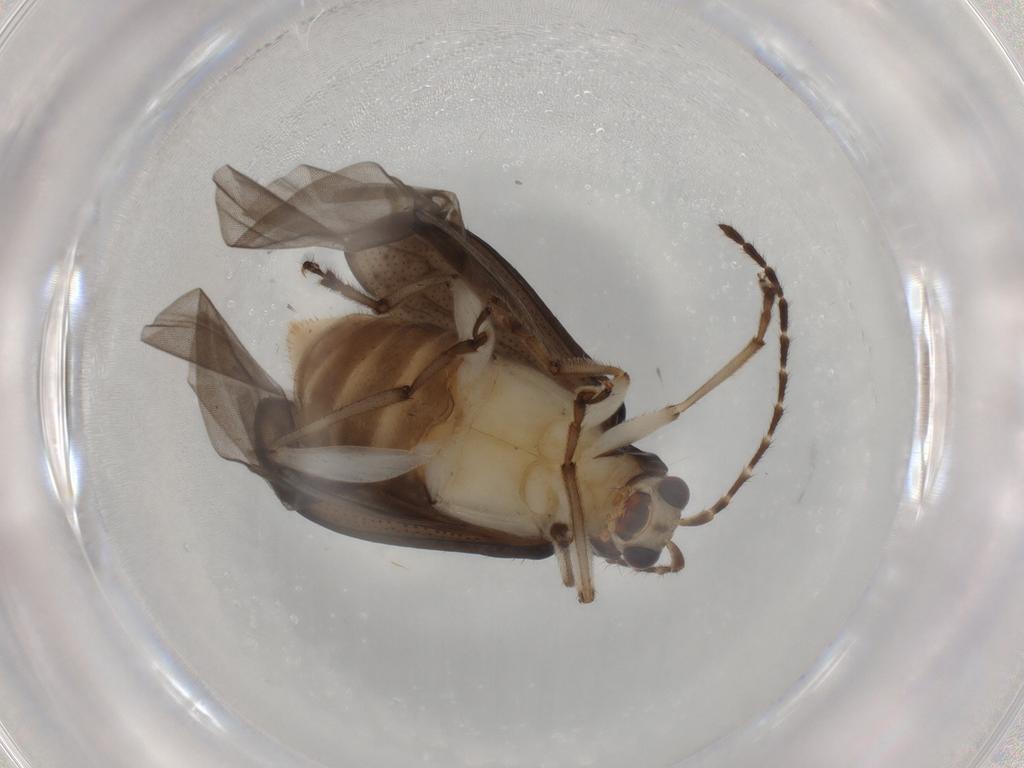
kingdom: Animalia
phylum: Arthropoda
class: Insecta
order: Coleoptera
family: Chrysomelidae
